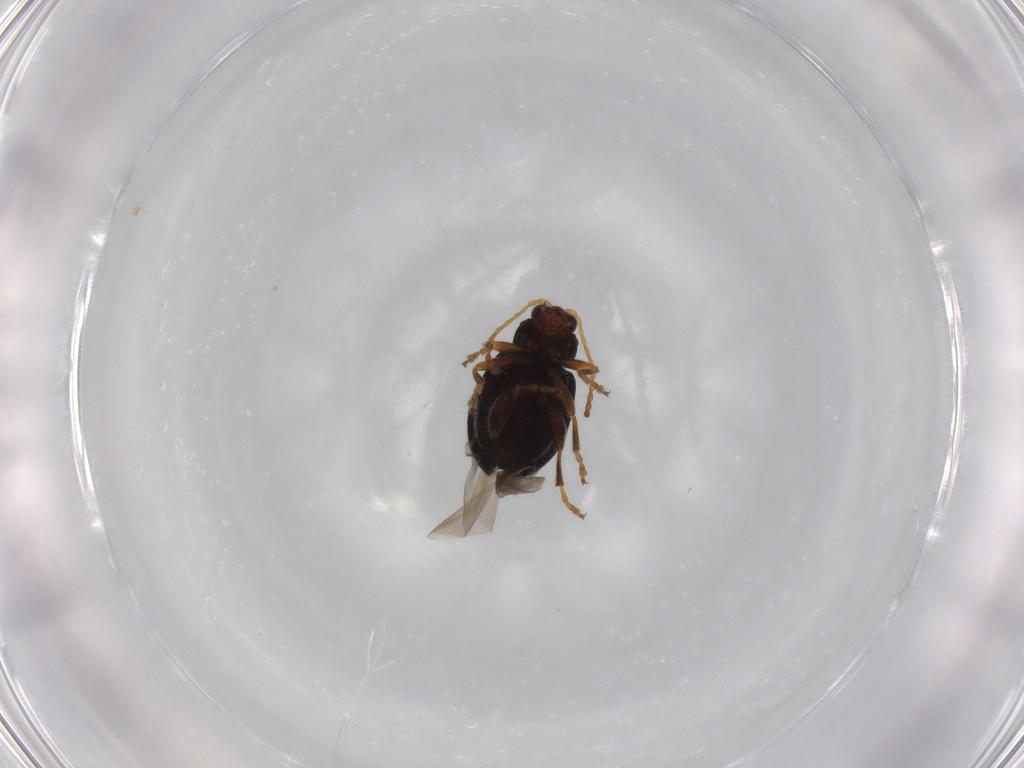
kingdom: Animalia
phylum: Arthropoda
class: Insecta
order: Coleoptera
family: Chrysomelidae
